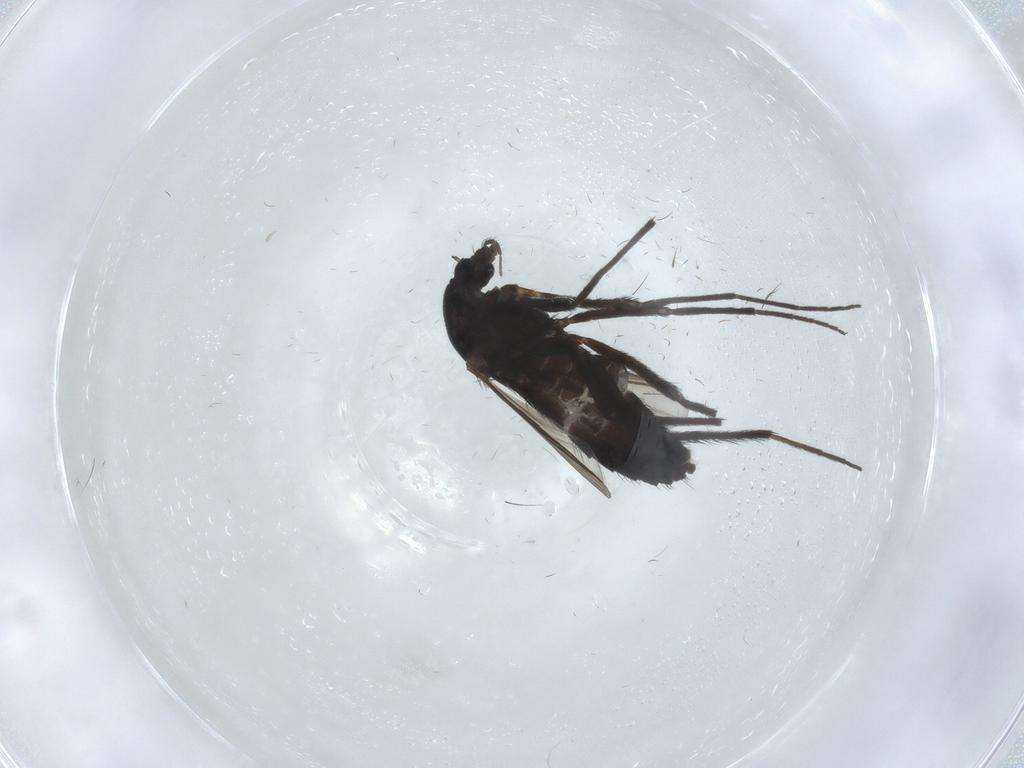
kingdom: Animalia
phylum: Arthropoda
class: Insecta
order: Diptera
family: Chironomidae
